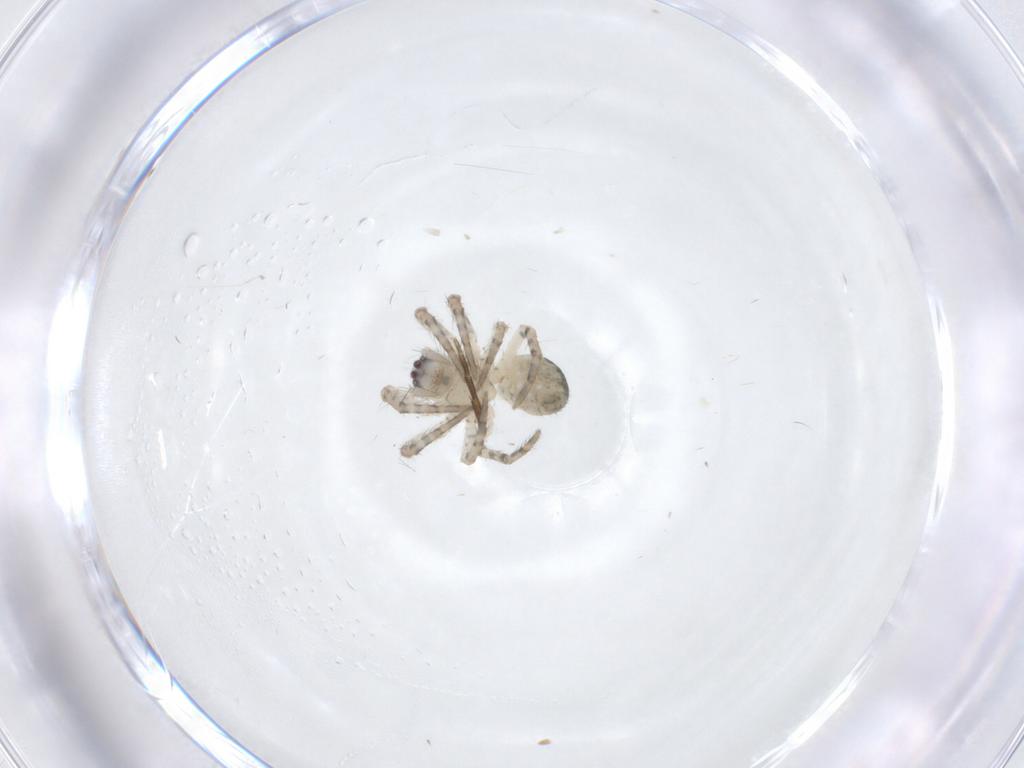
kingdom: Animalia
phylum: Arthropoda
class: Arachnida
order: Araneae
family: Araneidae
